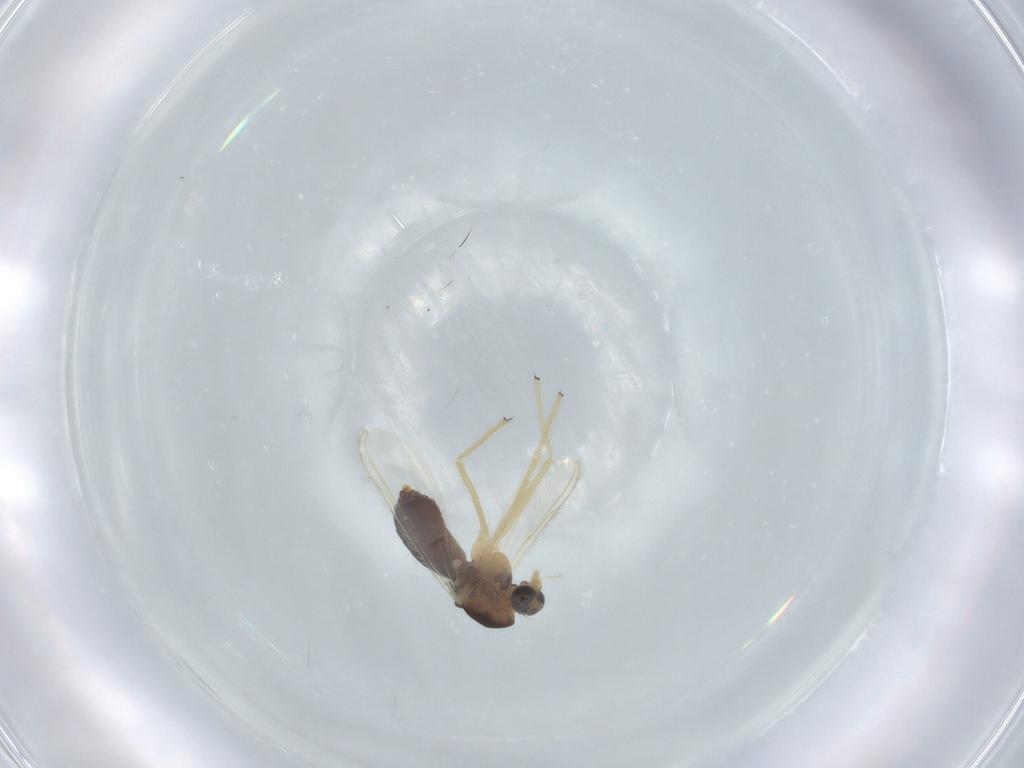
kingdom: Animalia
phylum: Arthropoda
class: Insecta
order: Diptera
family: Chironomidae
